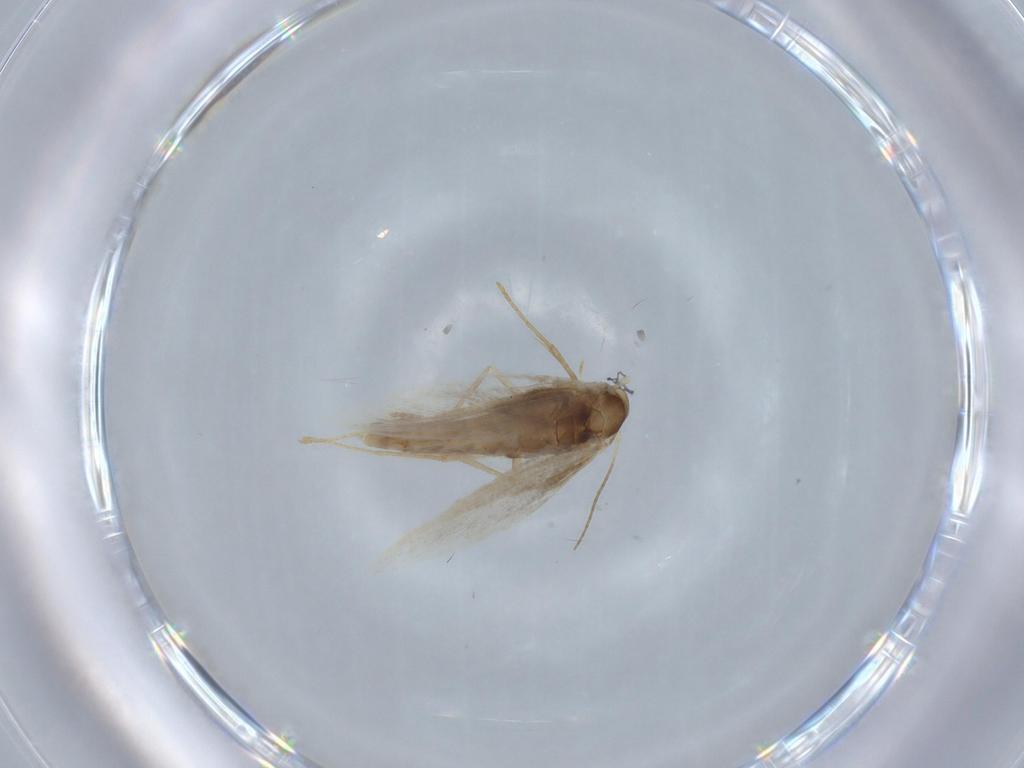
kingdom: Animalia
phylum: Arthropoda
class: Insecta
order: Lepidoptera
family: Gracillariidae
